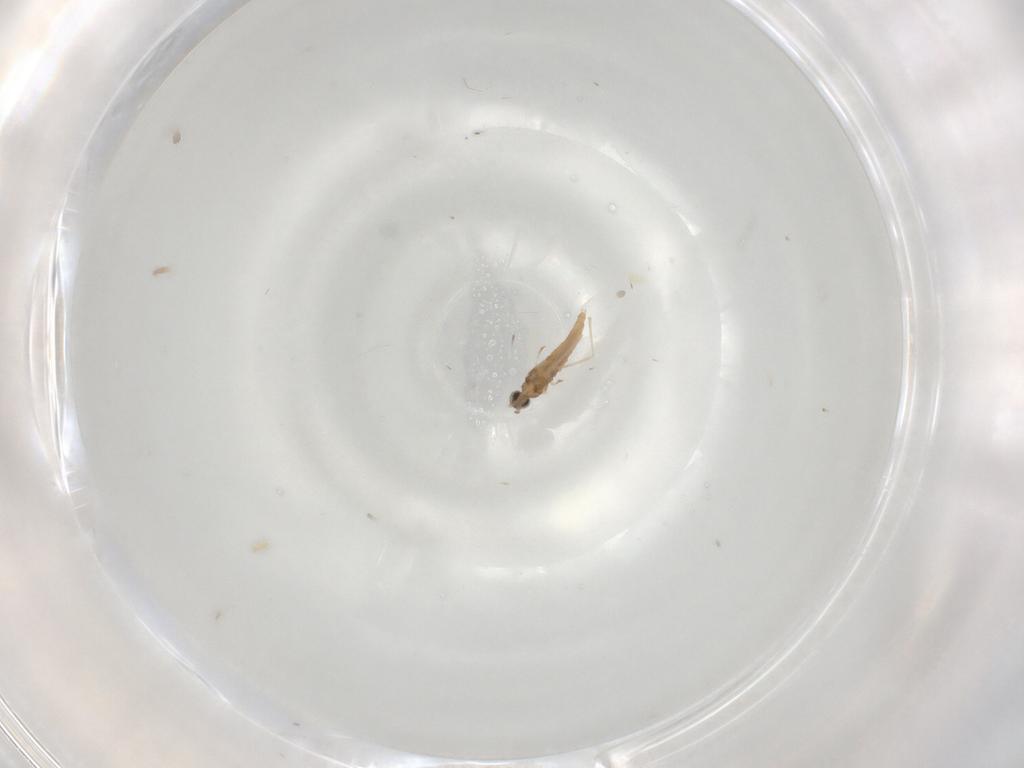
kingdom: Animalia
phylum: Arthropoda
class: Insecta
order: Diptera
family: Cecidomyiidae
